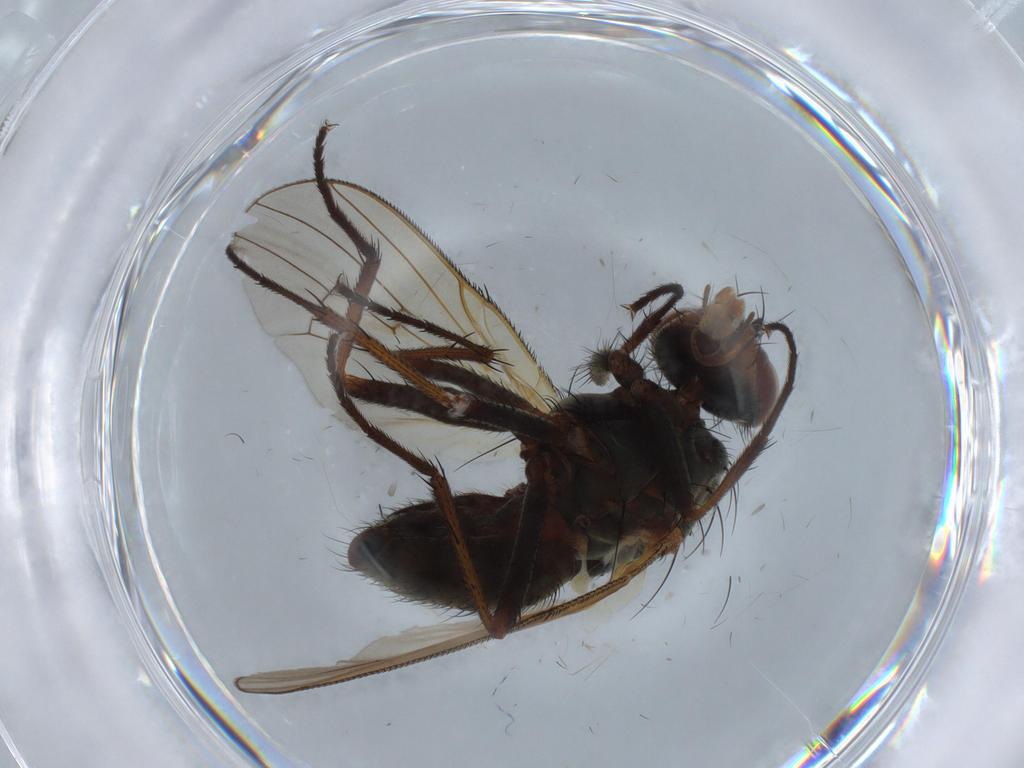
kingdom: Animalia
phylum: Arthropoda
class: Insecta
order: Diptera
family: Anthomyiidae
